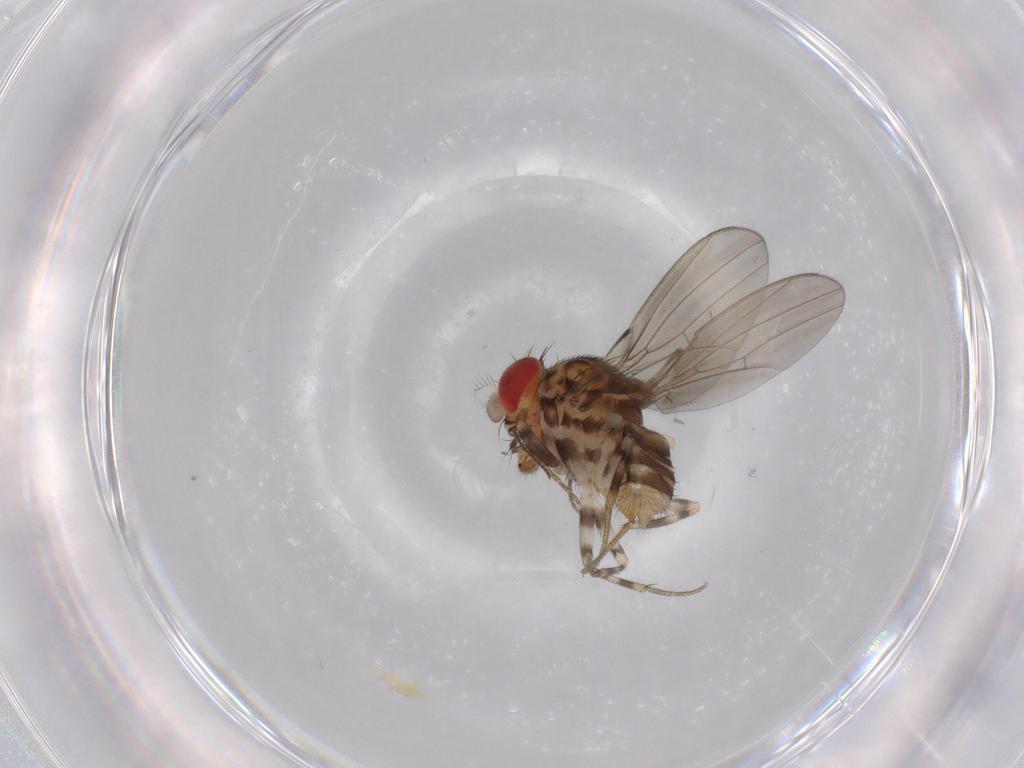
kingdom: Animalia
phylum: Arthropoda
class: Insecta
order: Diptera
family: Drosophilidae
